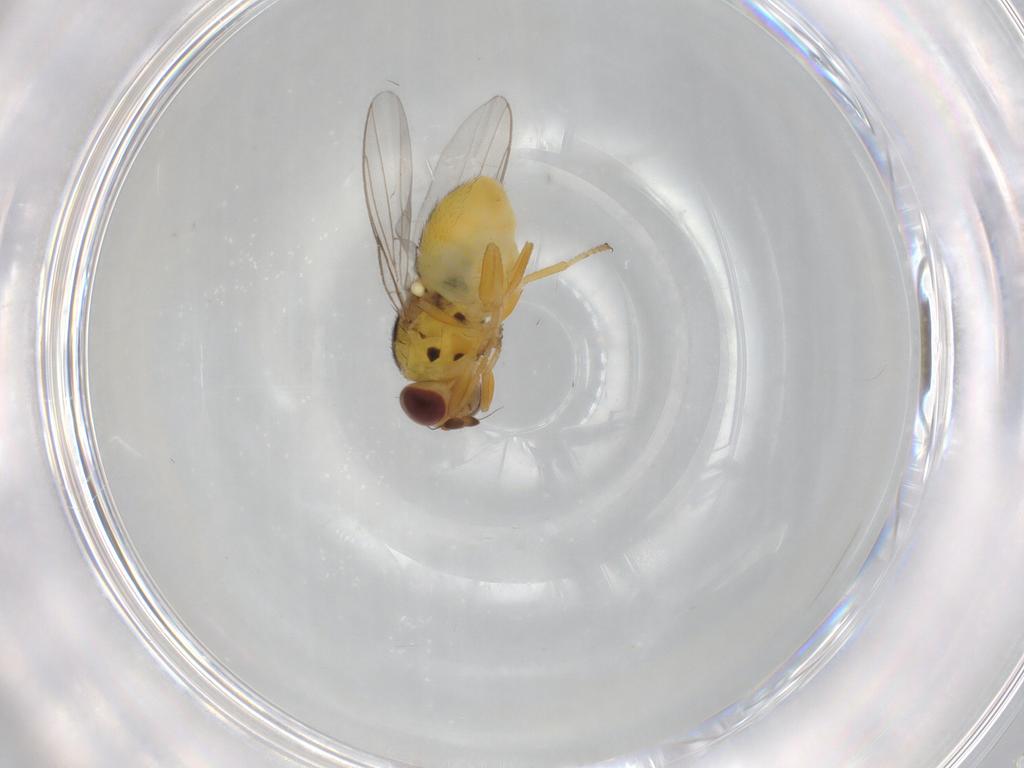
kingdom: Animalia
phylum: Arthropoda
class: Insecta
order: Diptera
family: Chloropidae
